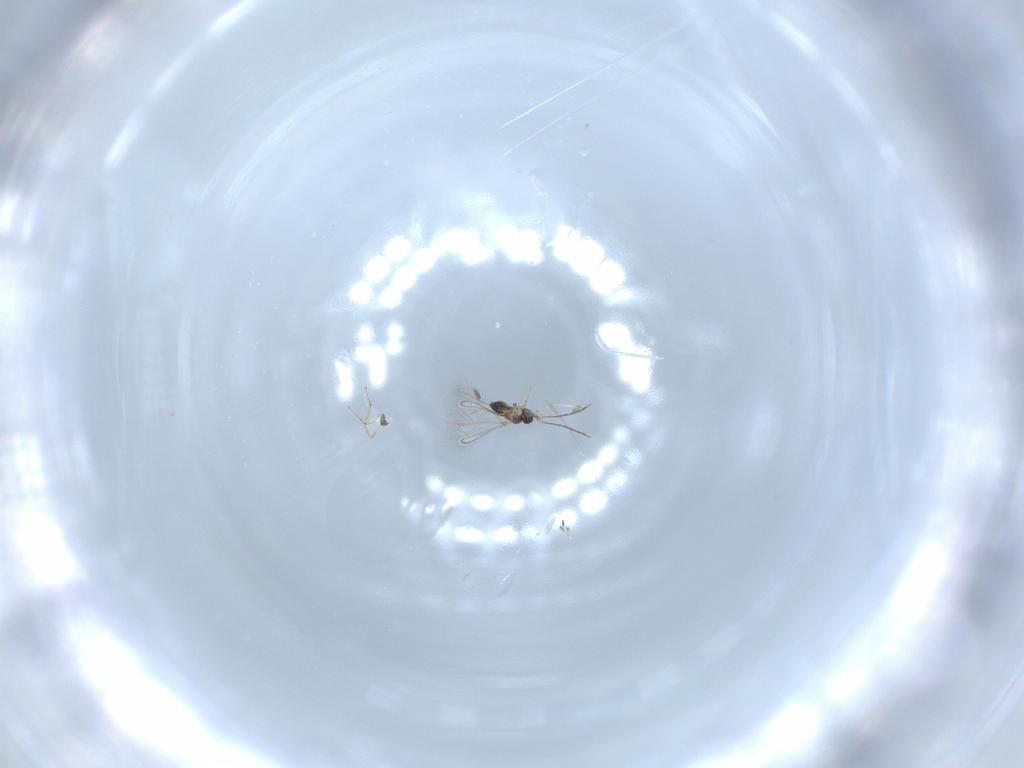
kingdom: Animalia
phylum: Arthropoda
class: Insecta
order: Hymenoptera
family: Mymaridae
